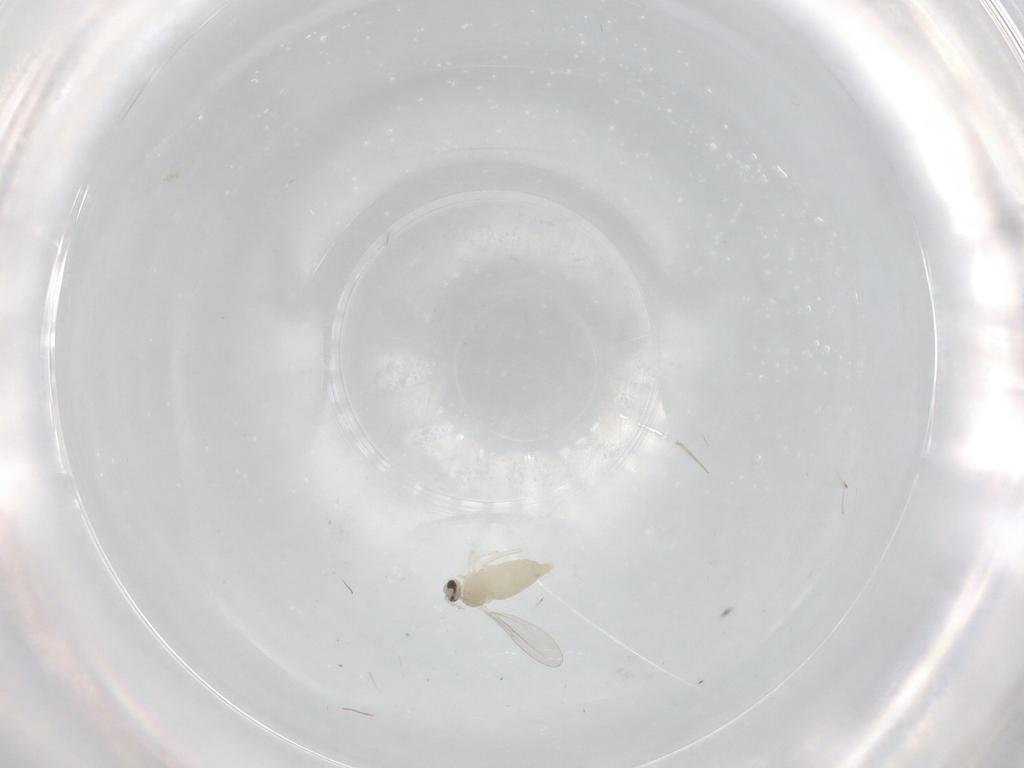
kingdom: Animalia
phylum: Arthropoda
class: Insecta
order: Diptera
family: Cecidomyiidae
